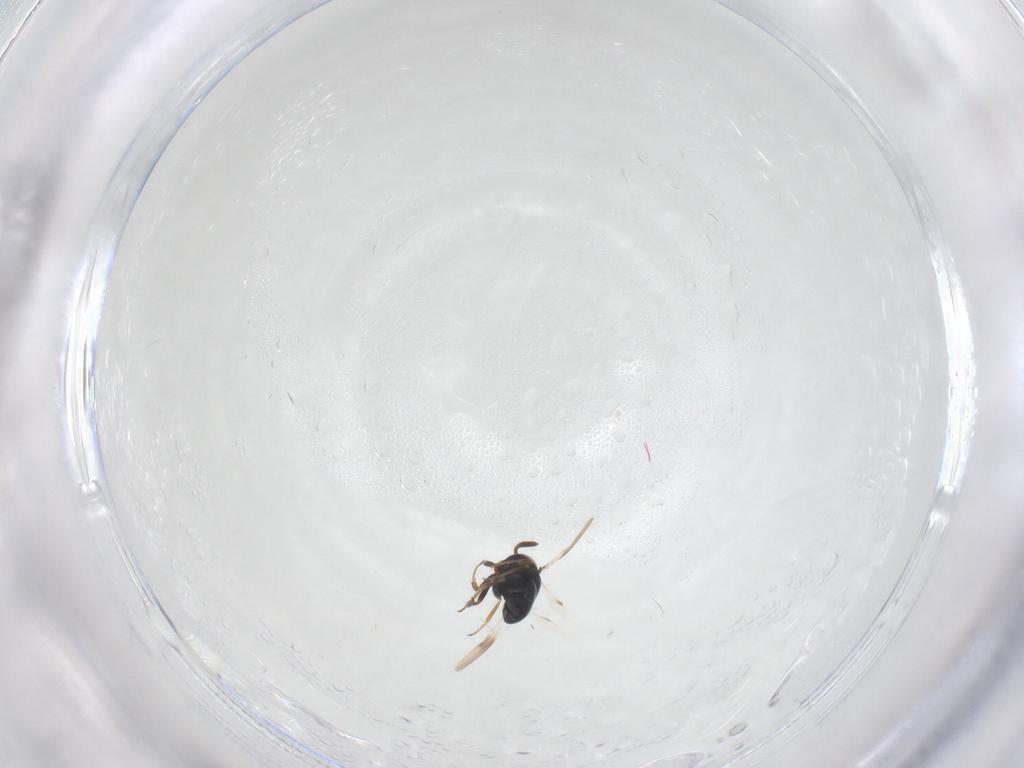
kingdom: Animalia
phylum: Arthropoda
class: Insecta
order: Hymenoptera
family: Scelionidae
